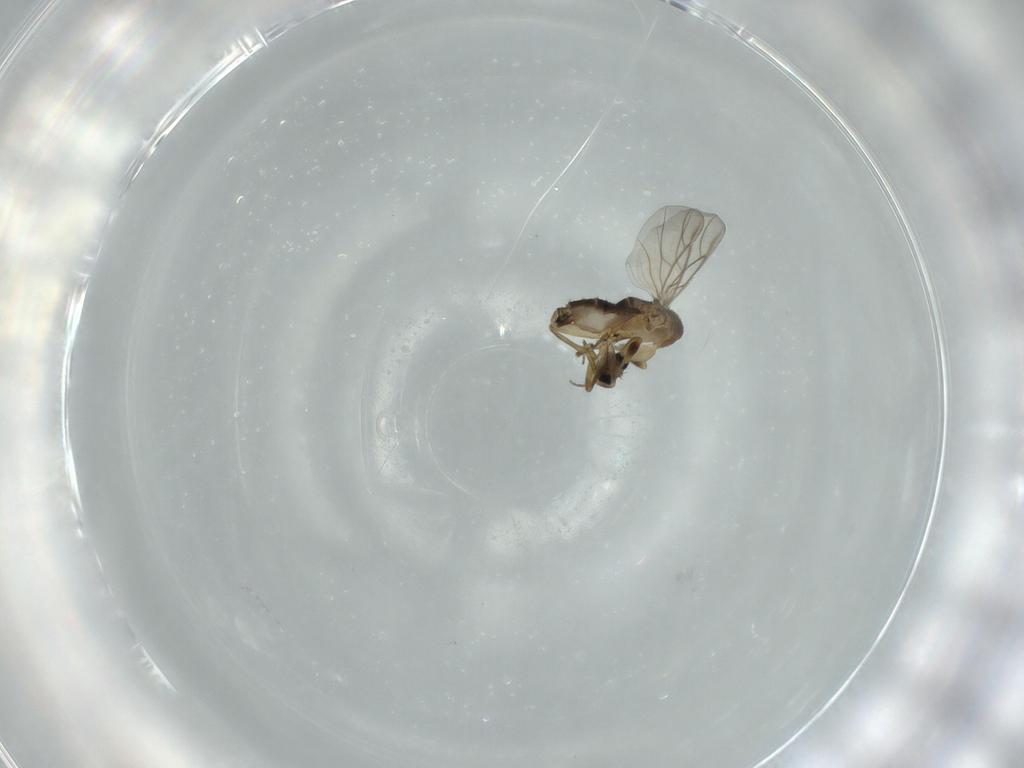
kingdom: Animalia
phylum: Arthropoda
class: Insecta
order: Diptera
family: Phoridae
